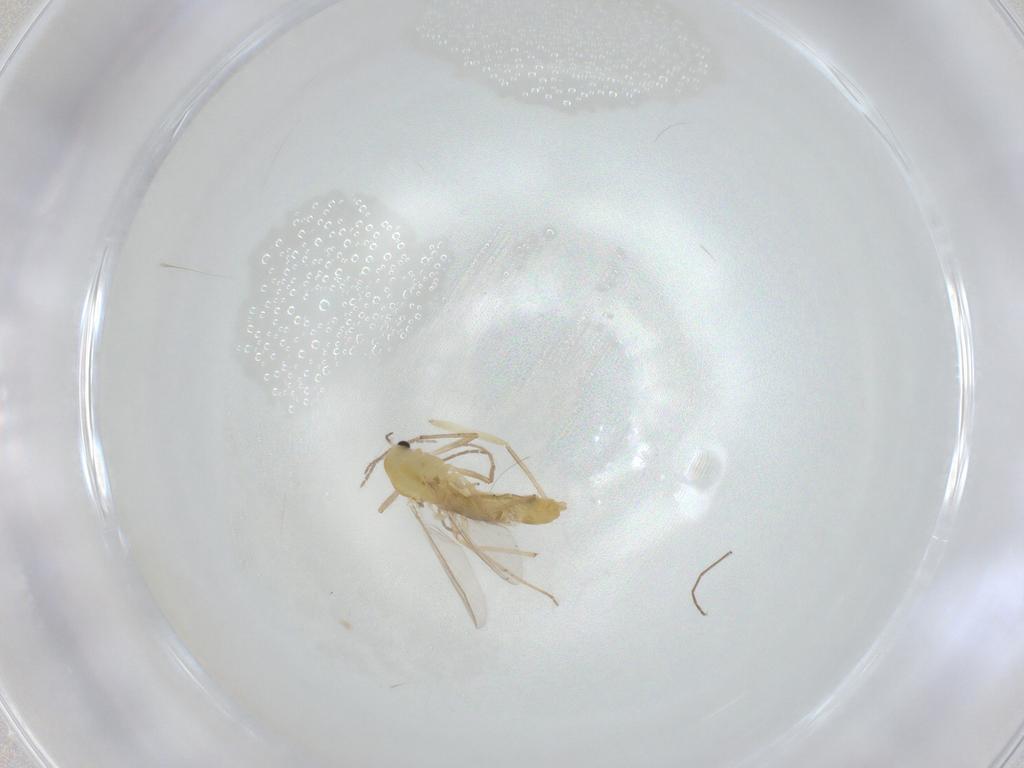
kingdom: Animalia
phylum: Arthropoda
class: Insecta
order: Diptera
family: Chironomidae
